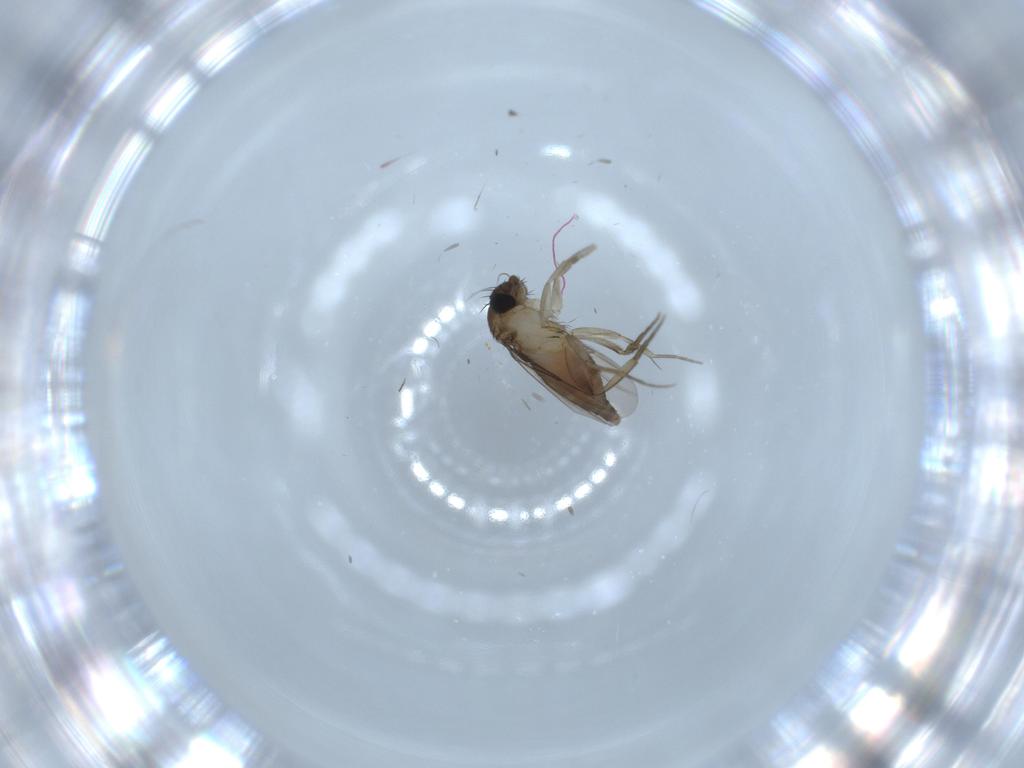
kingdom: Animalia
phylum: Arthropoda
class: Insecta
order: Diptera
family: Phoridae
